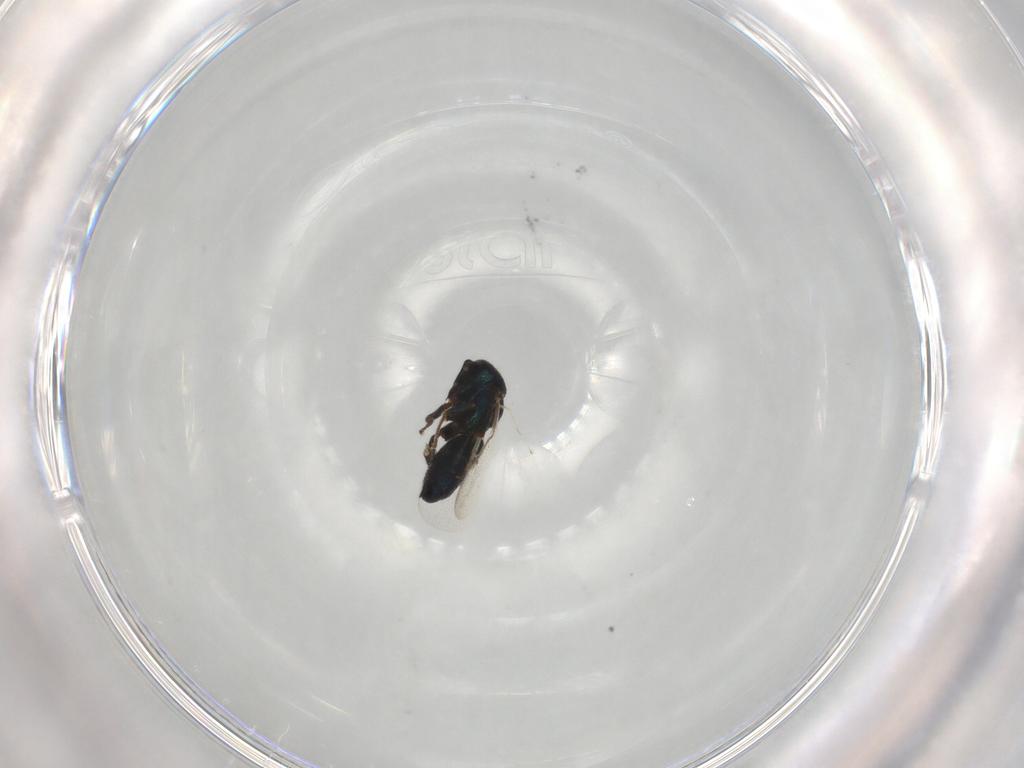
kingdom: Animalia
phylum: Arthropoda
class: Insecta
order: Hymenoptera
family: Ormyridae
